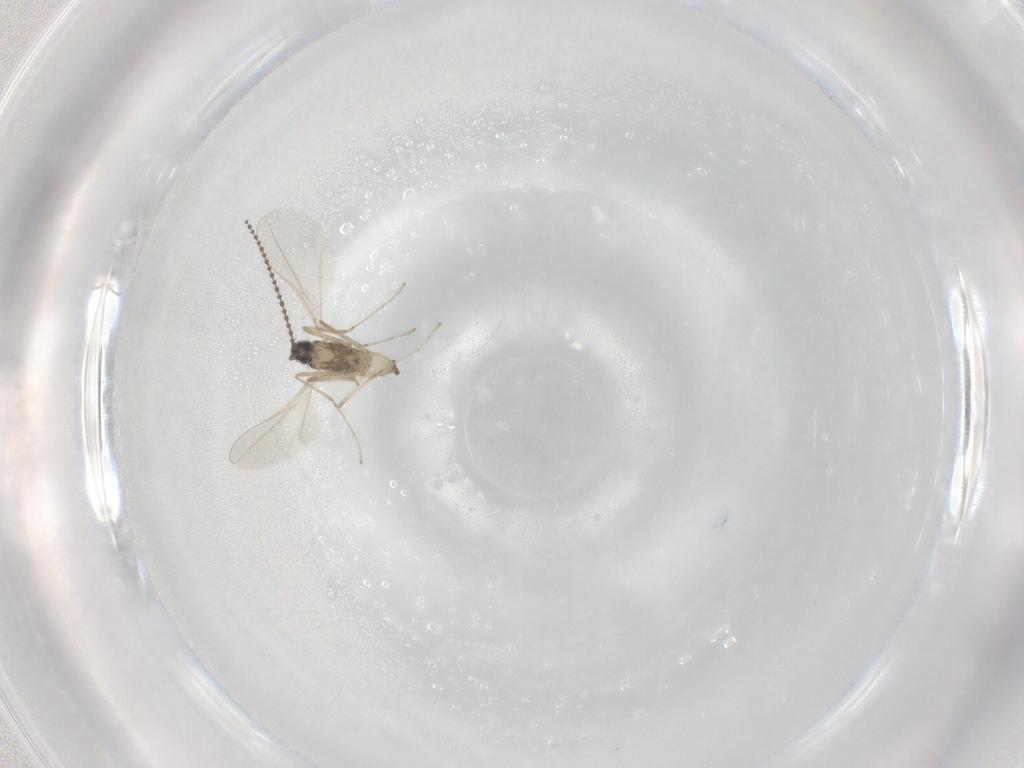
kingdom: Animalia
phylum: Arthropoda
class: Insecta
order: Diptera
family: Cecidomyiidae
